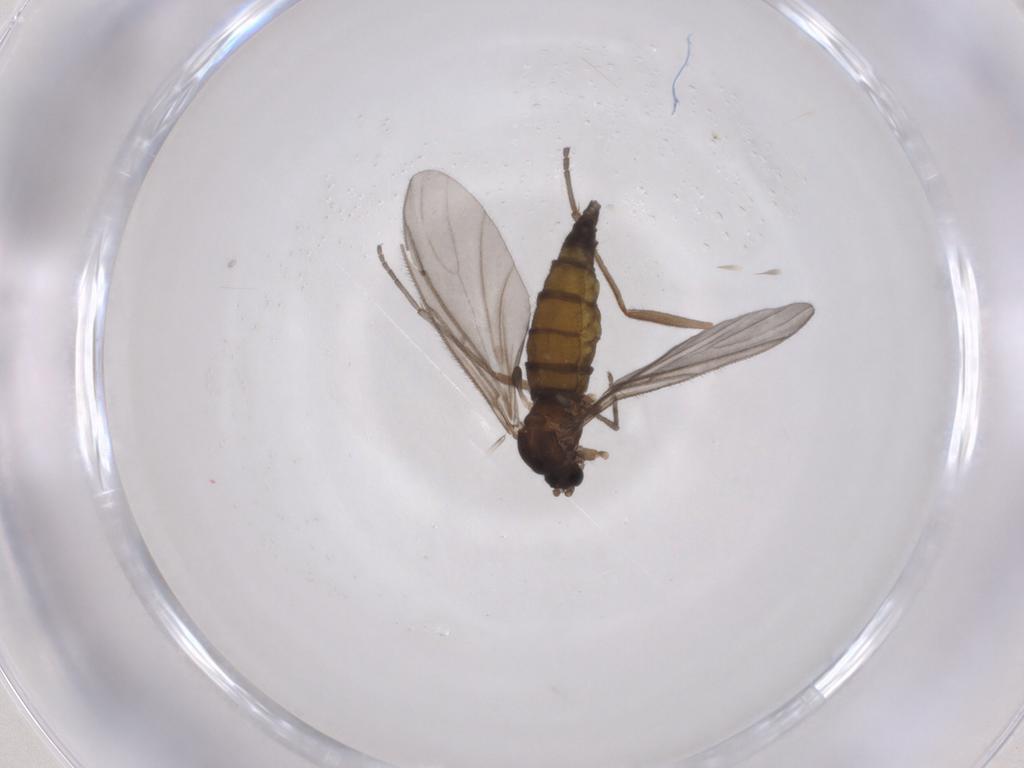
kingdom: Animalia
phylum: Arthropoda
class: Insecta
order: Diptera
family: Sciaridae
